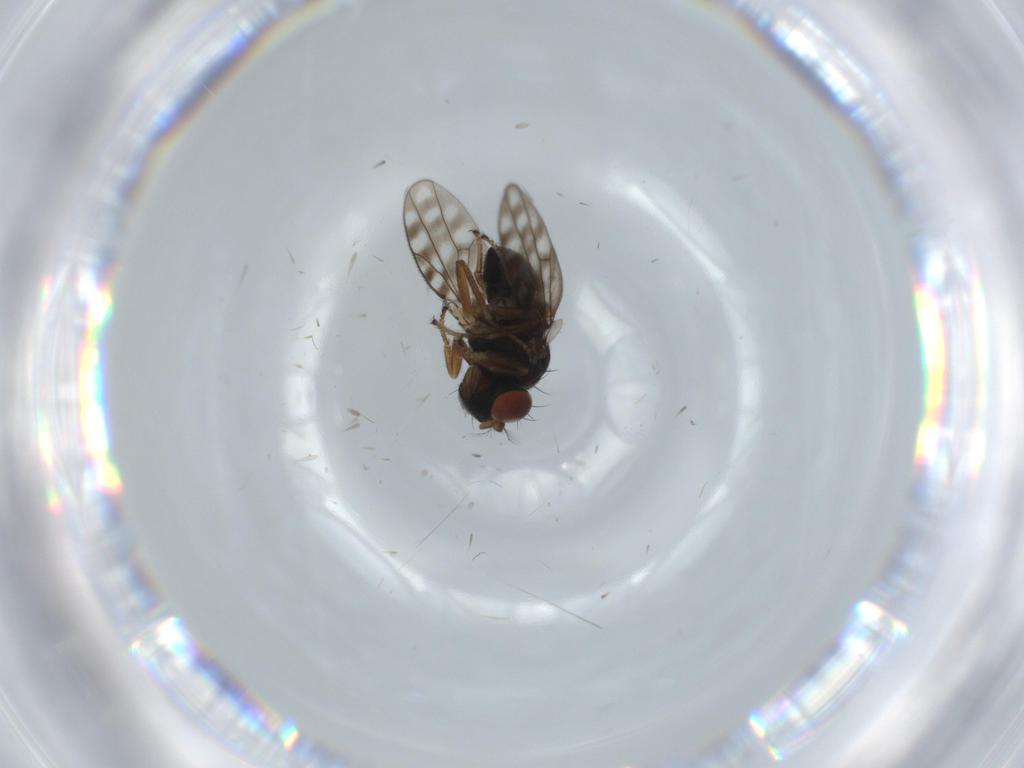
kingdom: Animalia
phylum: Arthropoda
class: Insecta
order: Diptera
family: Ephydridae
